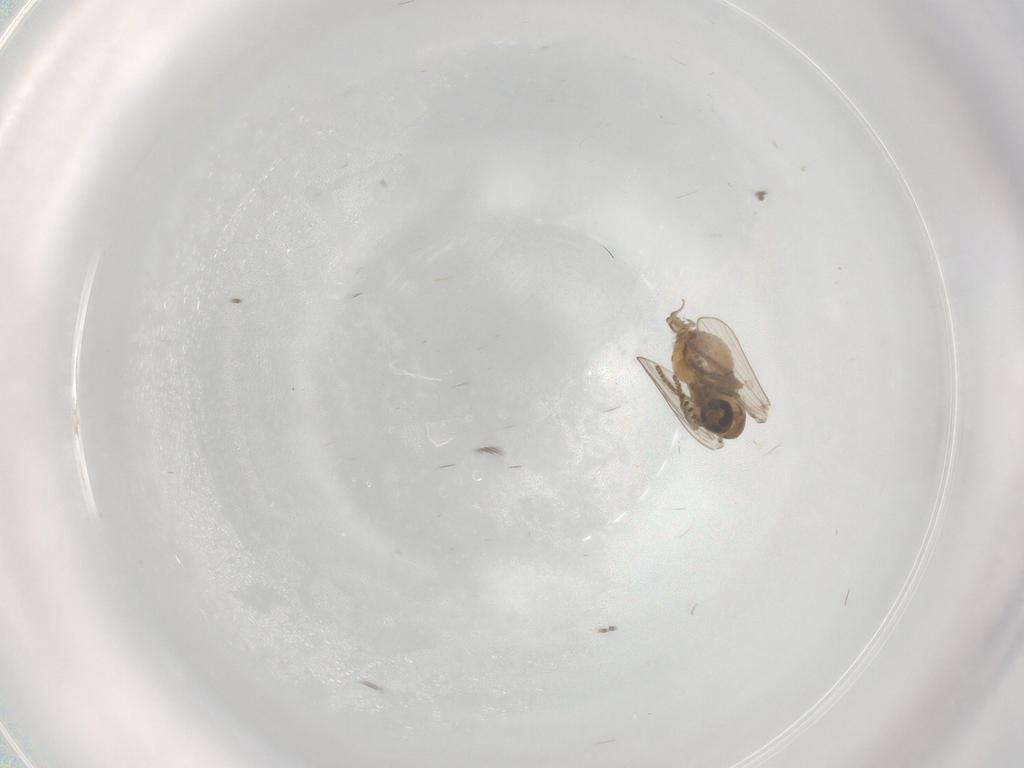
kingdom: Animalia
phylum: Arthropoda
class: Insecta
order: Diptera
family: Psychodidae
